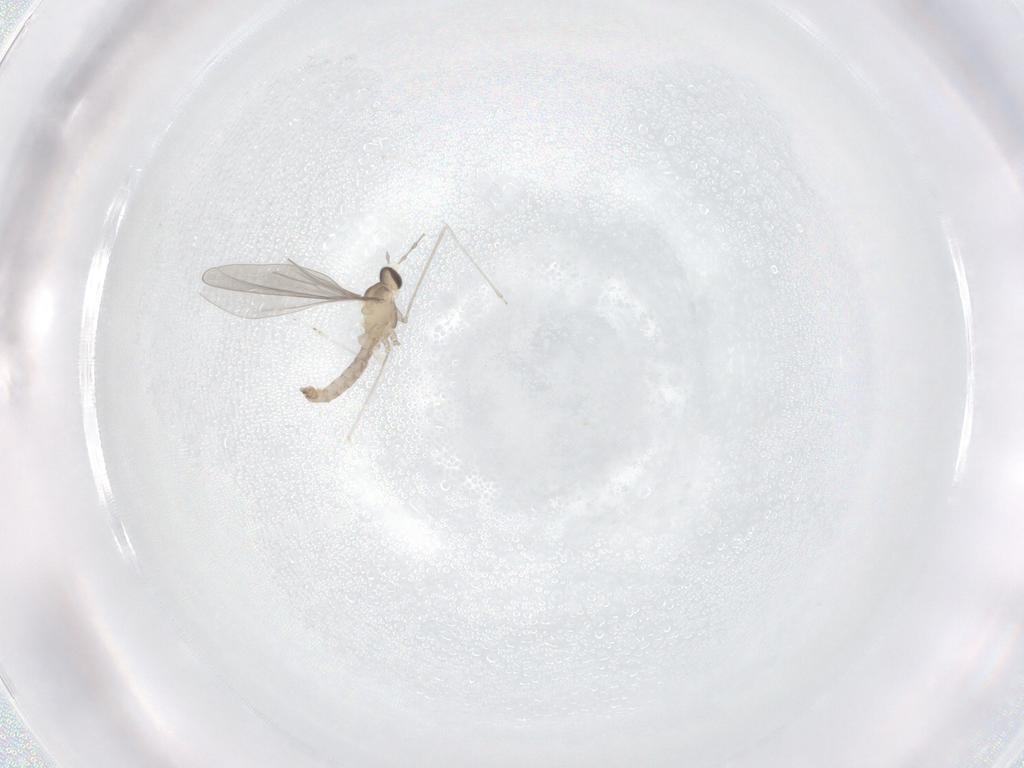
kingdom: Animalia
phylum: Arthropoda
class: Insecta
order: Diptera
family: Cecidomyiidae
